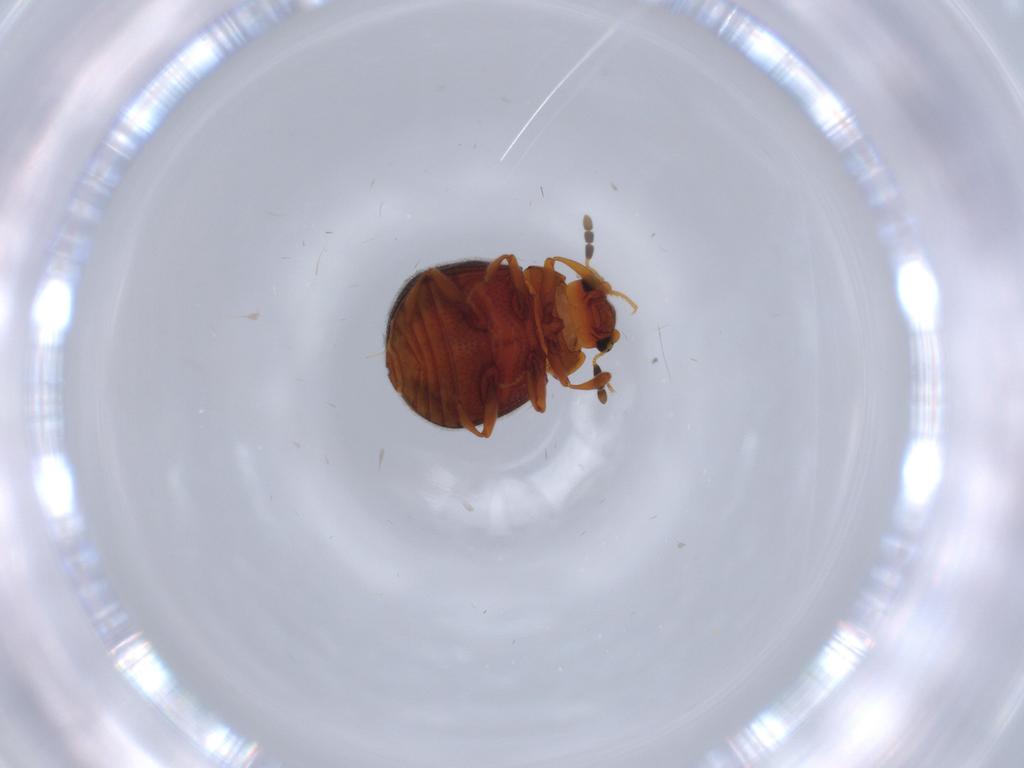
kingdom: Animalia
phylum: Arthropoda
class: Insecta
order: Coleoptera
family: Sphindidae
